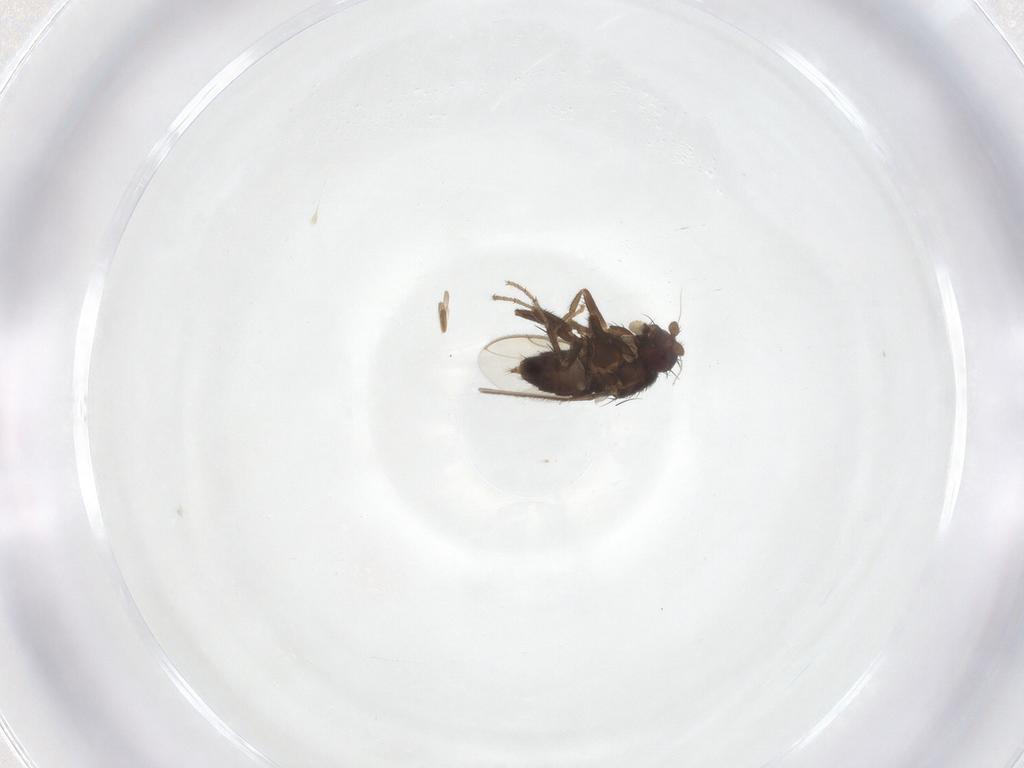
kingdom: Animalia
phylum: Arthropoda
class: Insecta
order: Diptera
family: Sphaeroceridae
